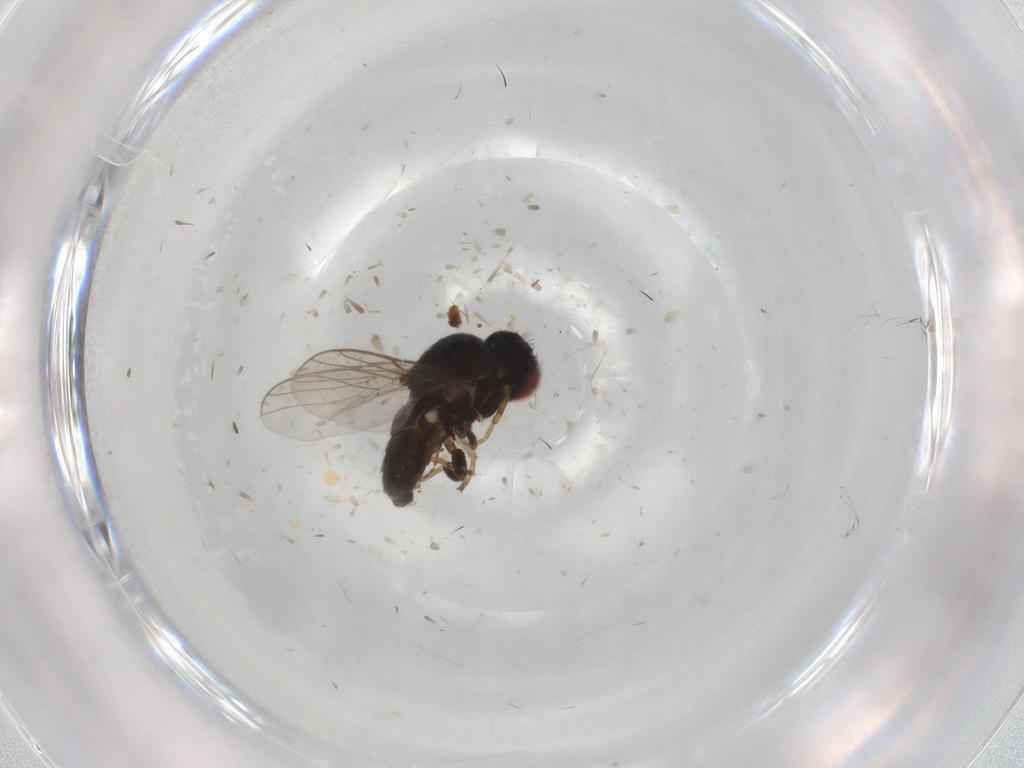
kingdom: Animalia
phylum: Arthropoda
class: Insecta
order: Diptera
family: Chloropidae
